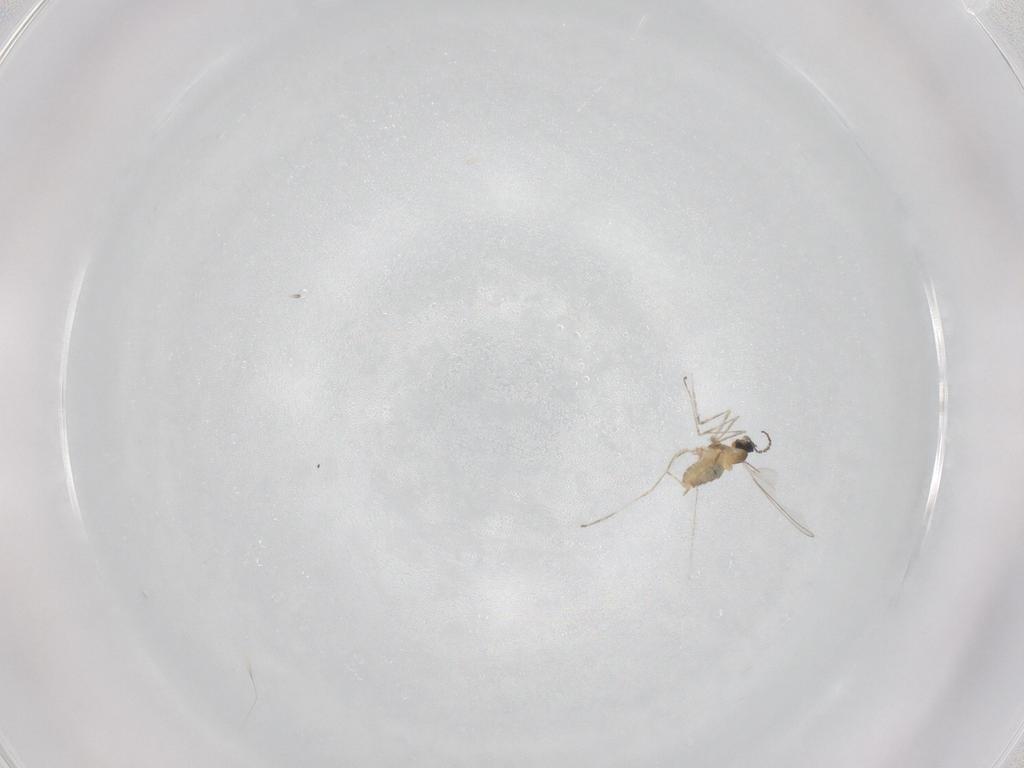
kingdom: Animalia
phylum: Arthropoda
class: Insecta
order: Diptera
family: Cecidomyiidae
